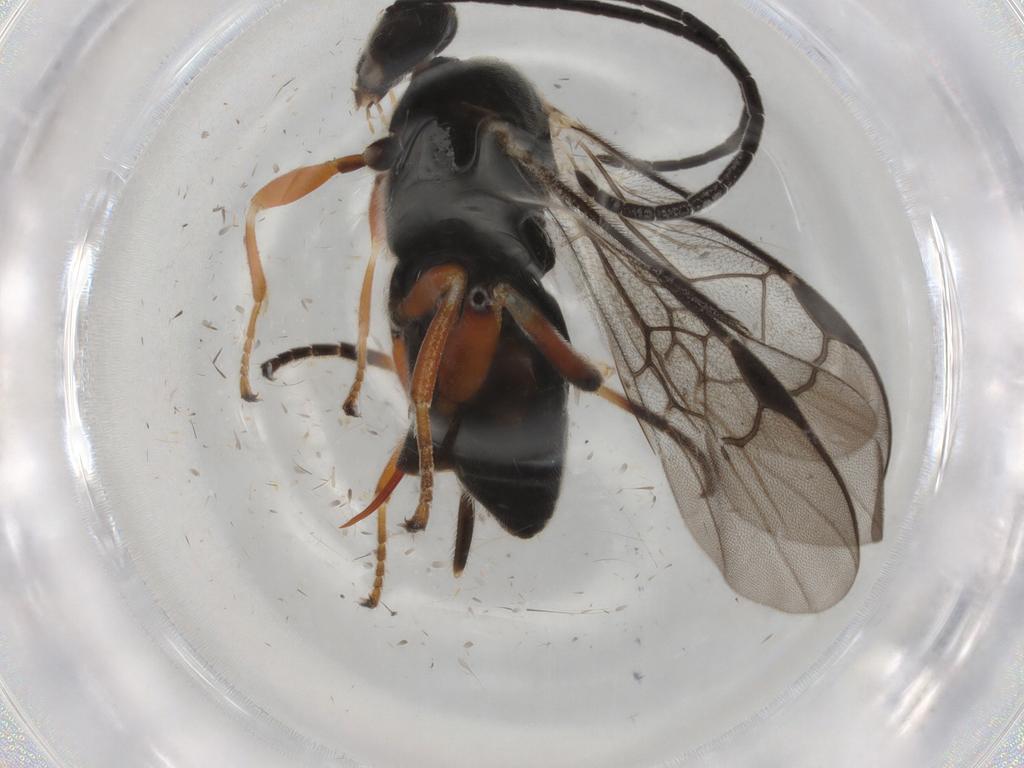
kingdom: Animalia
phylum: Arthropoda
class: Insecta
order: Hymenoptera
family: Braconidae
